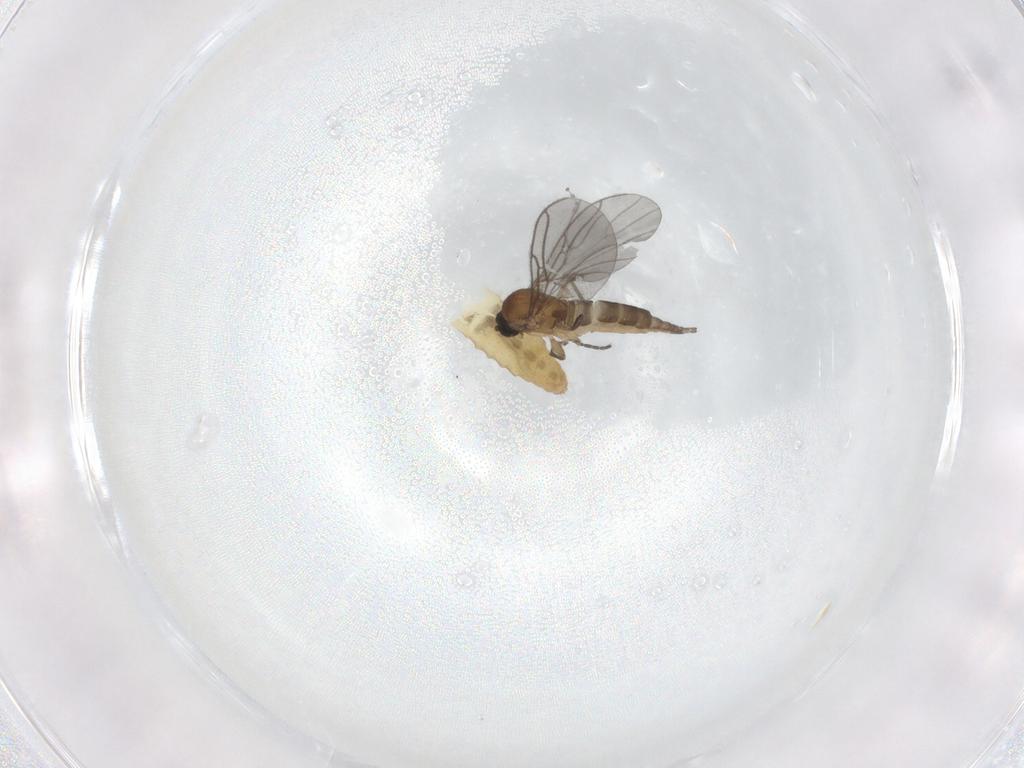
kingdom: Animalia
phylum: Arthropoda
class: Insecta
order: Diptera
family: Sciaridae
